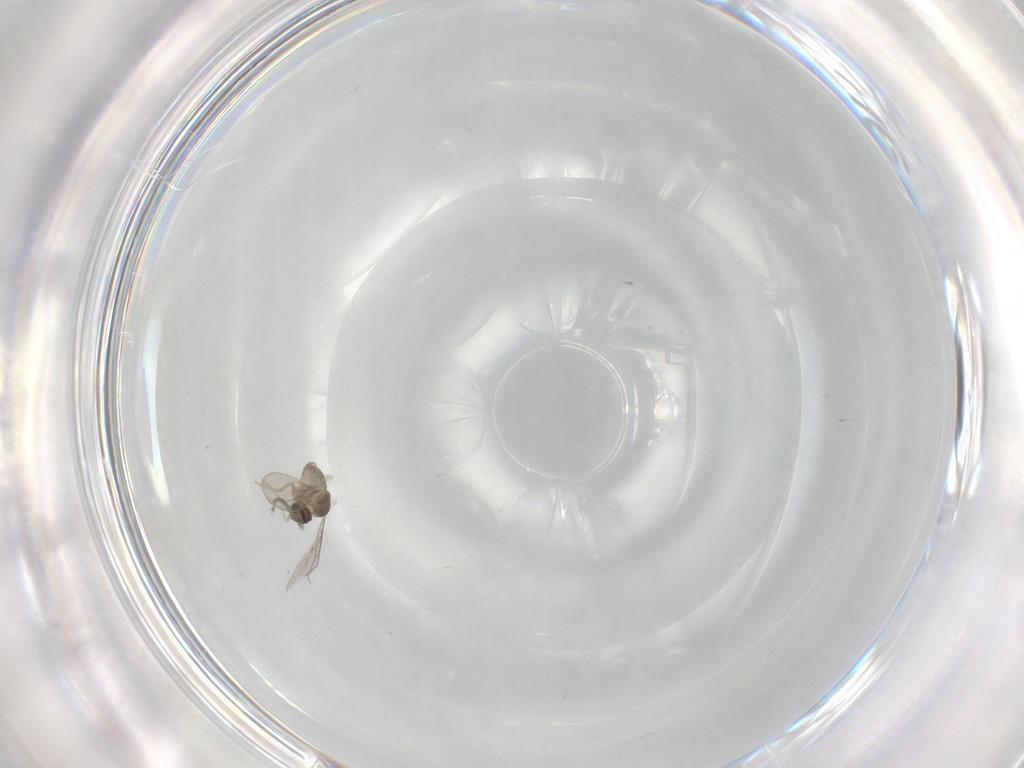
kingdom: Animalia
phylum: Arthropoda
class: Insecta
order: Diptera
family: Cecidomyiidae
